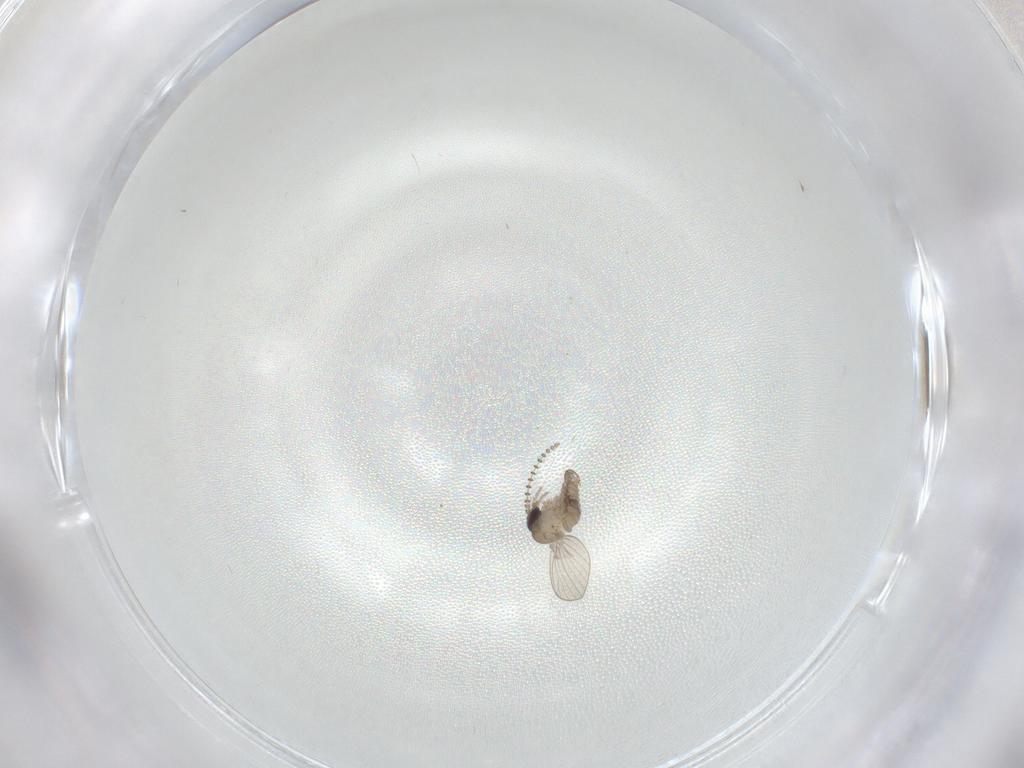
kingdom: Animalia
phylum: Arthropoda
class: Insecta
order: Diptera
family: Psychodidae
